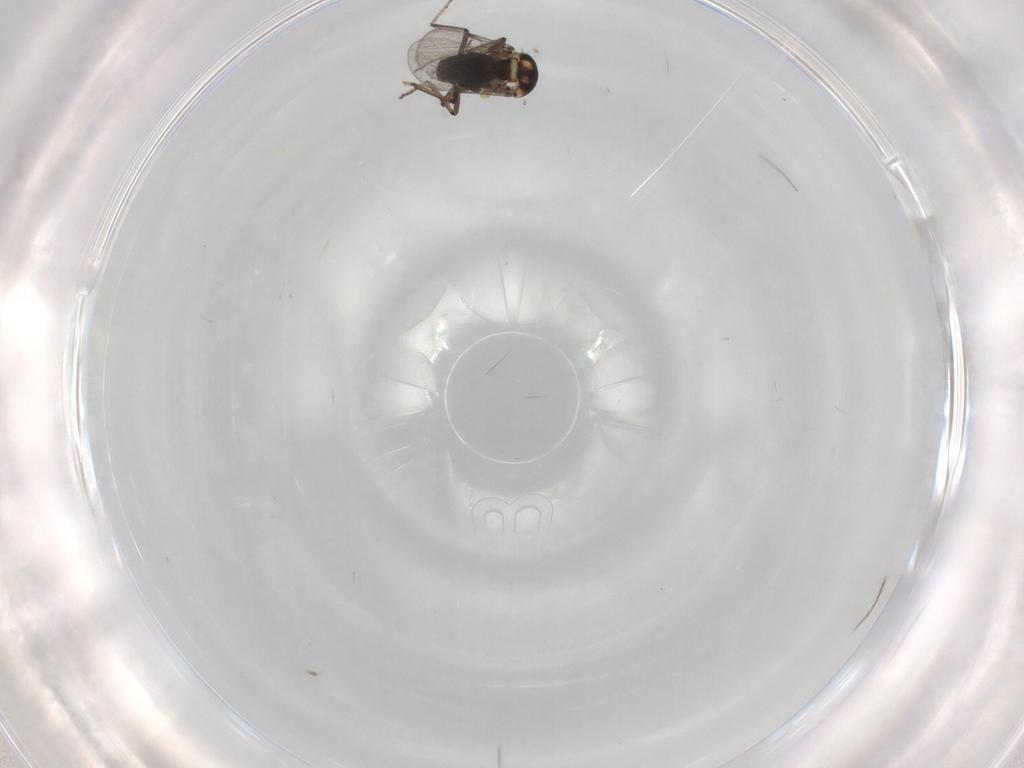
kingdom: Animalia
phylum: Arthropoda
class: Insecta
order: Diptera
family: Ceratopogonidae
